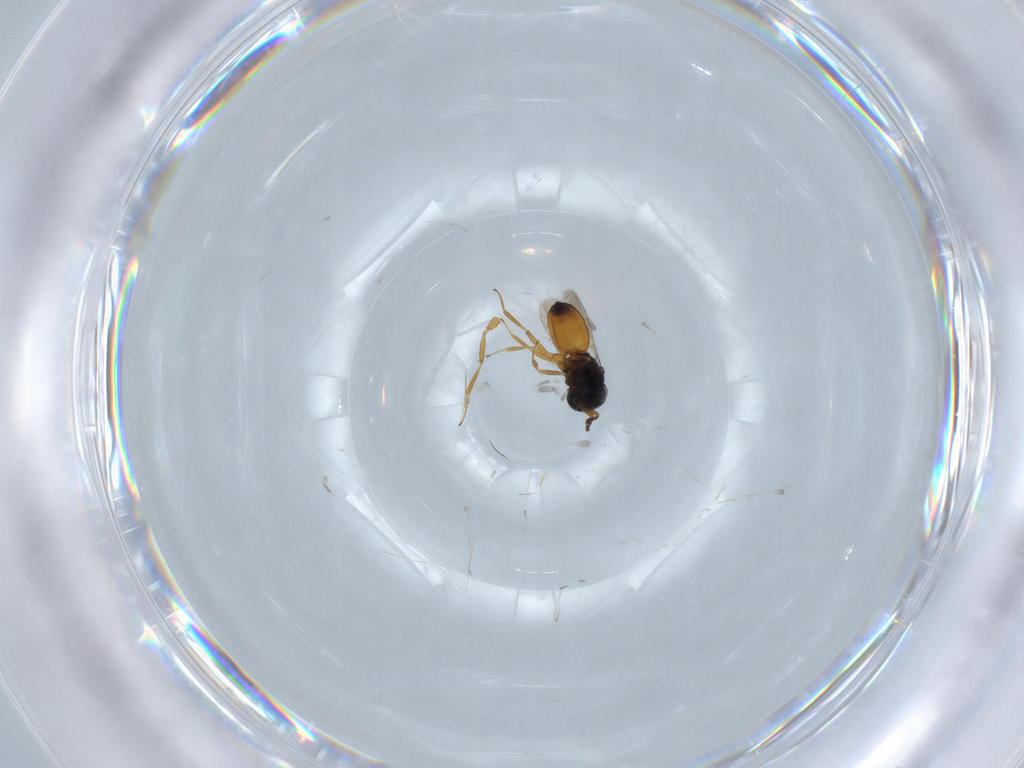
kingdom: Animalia
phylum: Arthropoda
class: Insecta
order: Hymenoptera
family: Scelionidae
